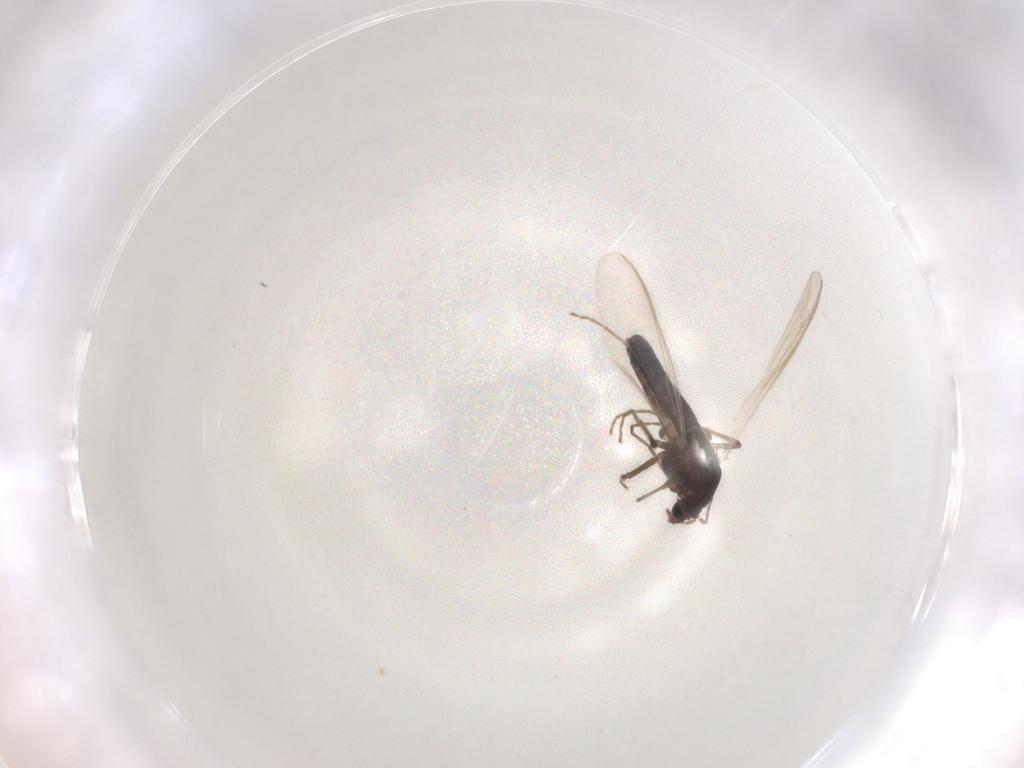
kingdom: Animalia
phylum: Arthropoda
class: Insecta
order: Diptera
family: Chironomidae
